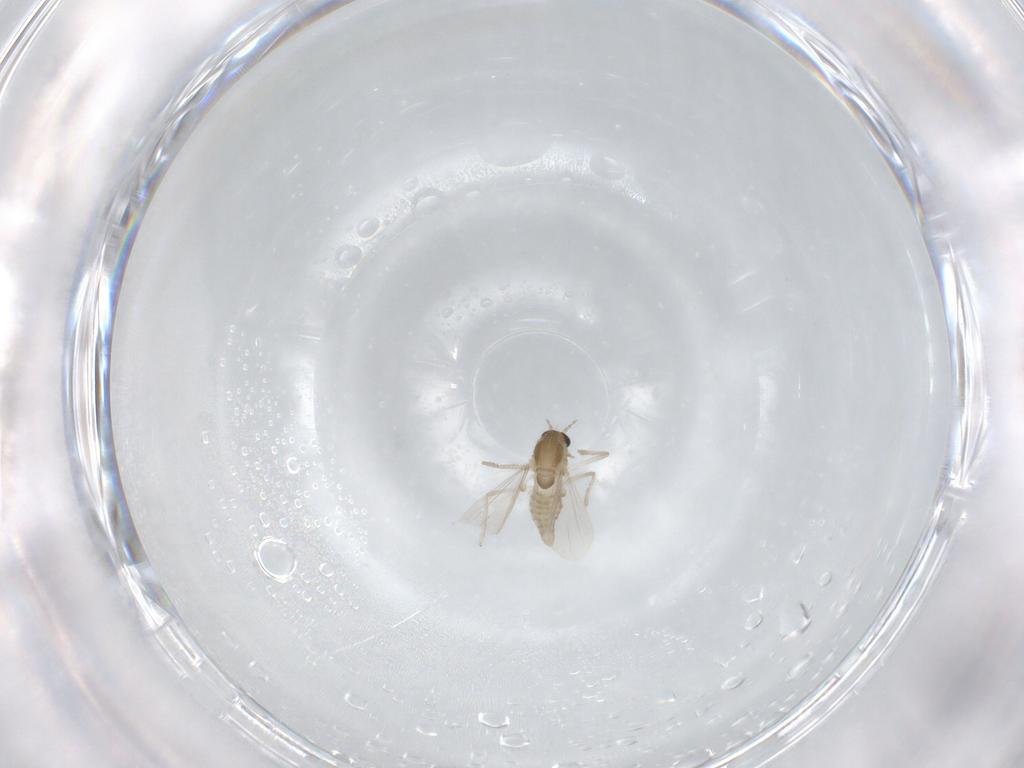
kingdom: Animalia
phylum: Arthropoda
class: Insecta
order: Diptera
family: Chironomidae
